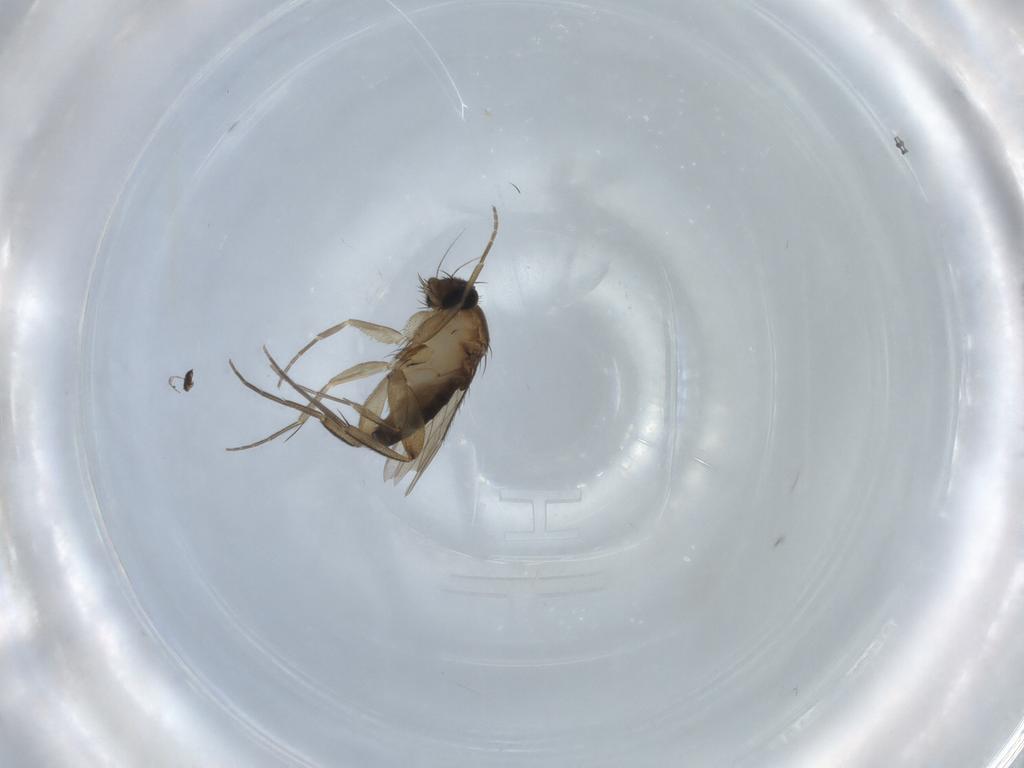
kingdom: Animalia
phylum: Arthropoda
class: Insecta
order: Diptera
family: Phoridae
